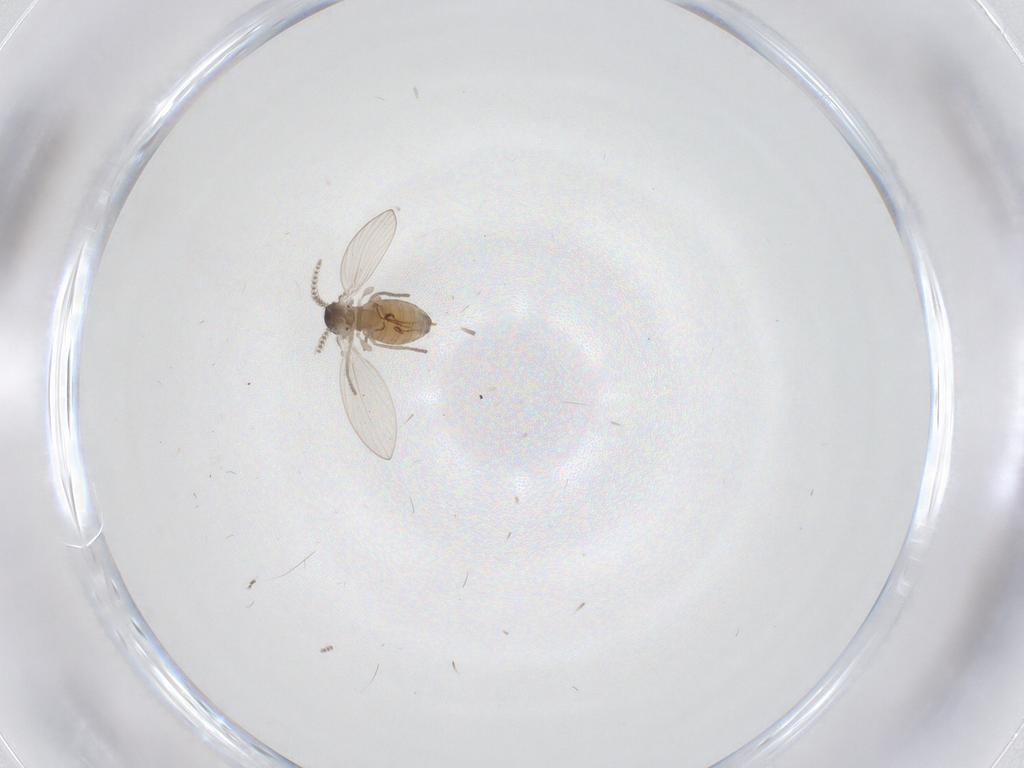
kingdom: Animalia
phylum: Arthropoda
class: Insecta
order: Diptera
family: Psychodidae
